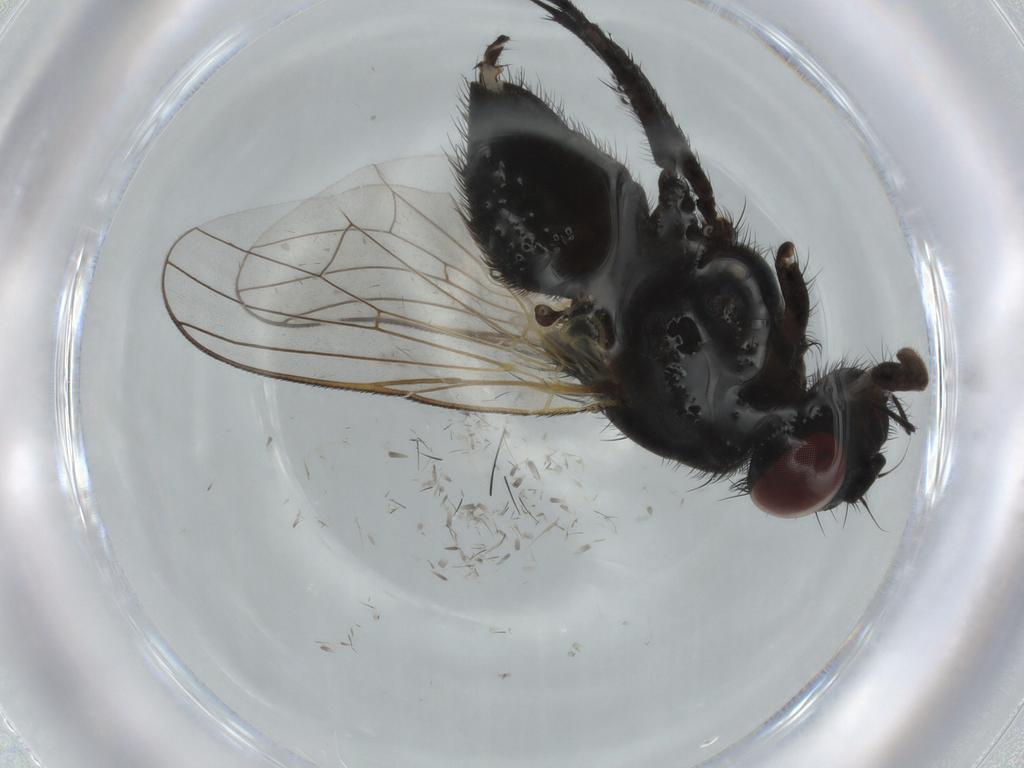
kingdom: Animalia
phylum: Arthropoda
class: Insecta
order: Diptera
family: Muscidae
